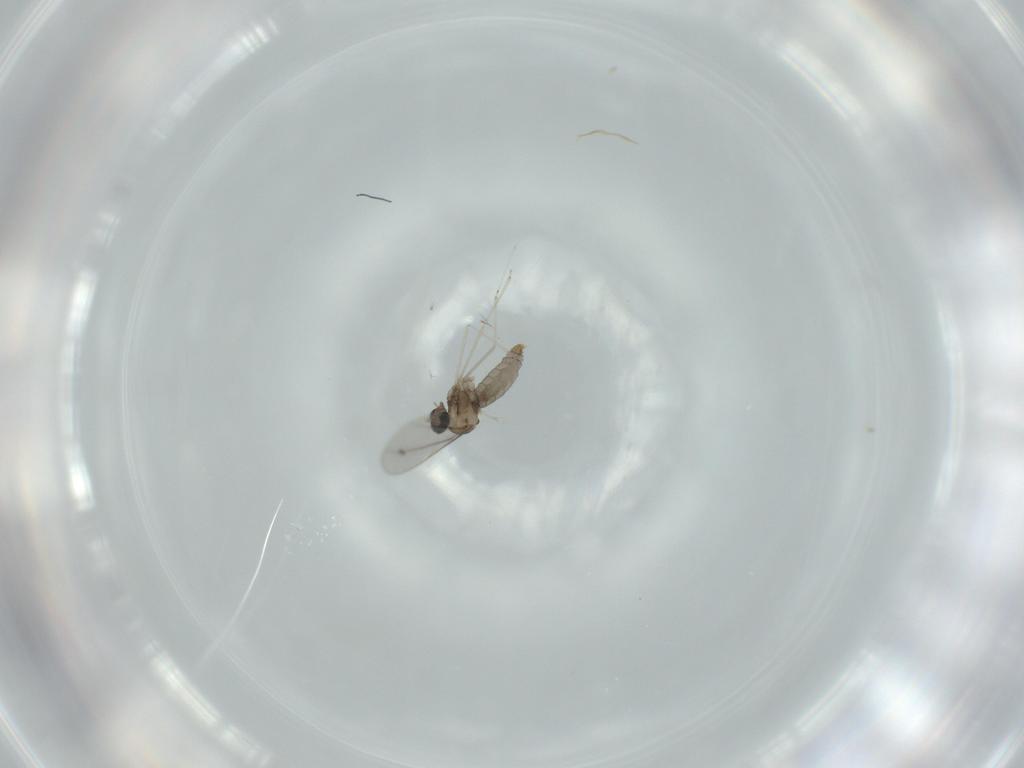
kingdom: Animalia
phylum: Arthropoda
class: Insecta
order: Diptera
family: Cecidomyiidae
